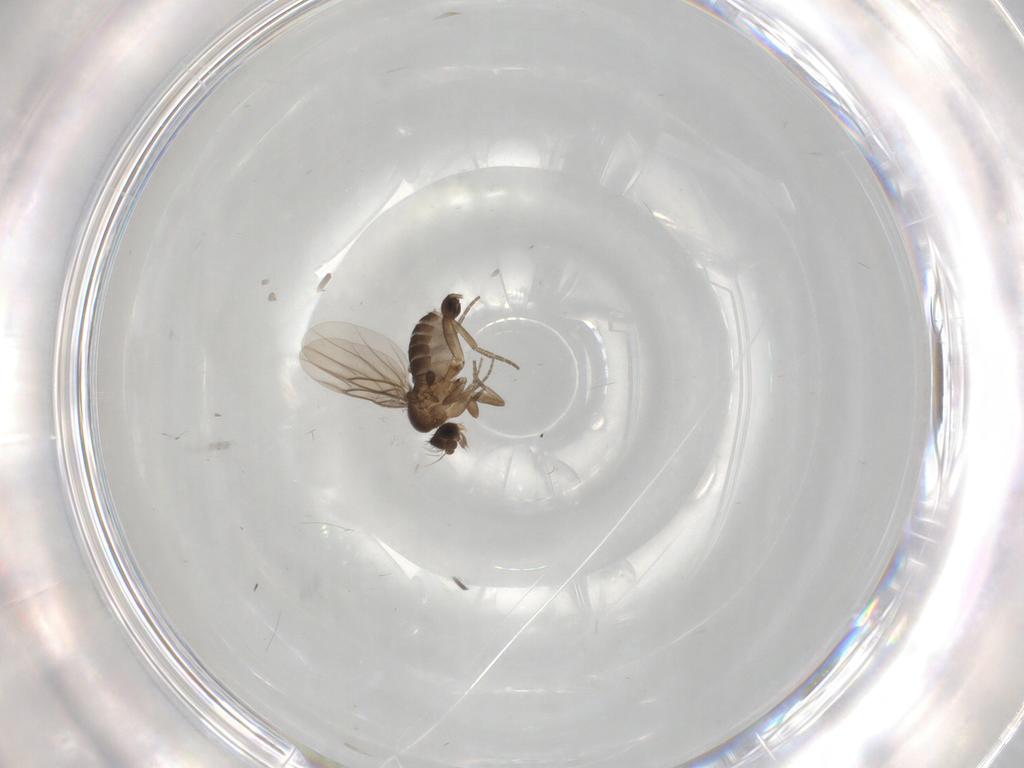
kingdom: Animalia
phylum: Arthropoda
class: Insecta
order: Diptera
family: Phoridae
